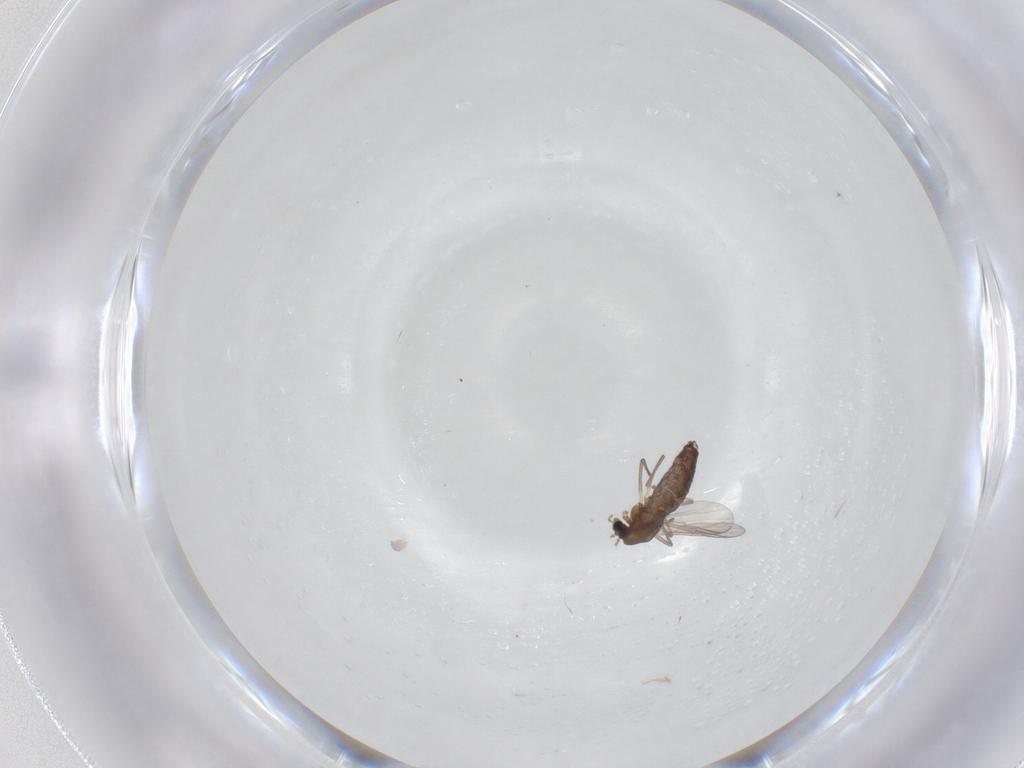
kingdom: Animalia
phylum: Arthropoda
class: Insecta
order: Diptera
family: Chironomidae
